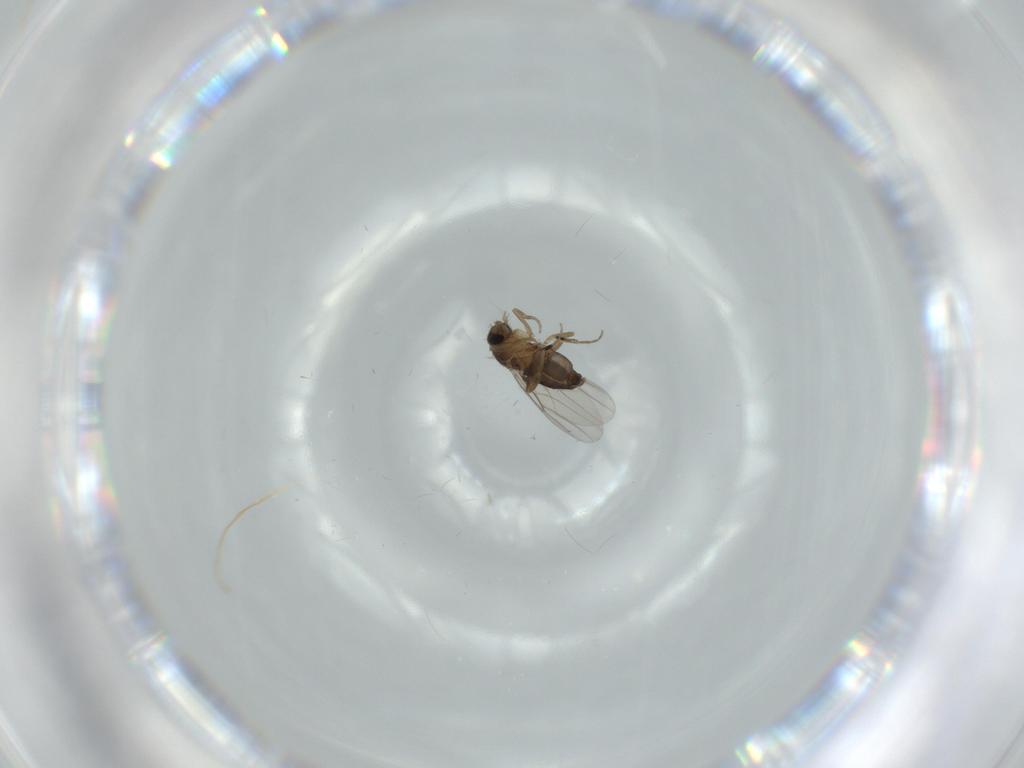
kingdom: Animalia
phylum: Arthropoda
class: Insecta
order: Diptera
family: Phoridae
